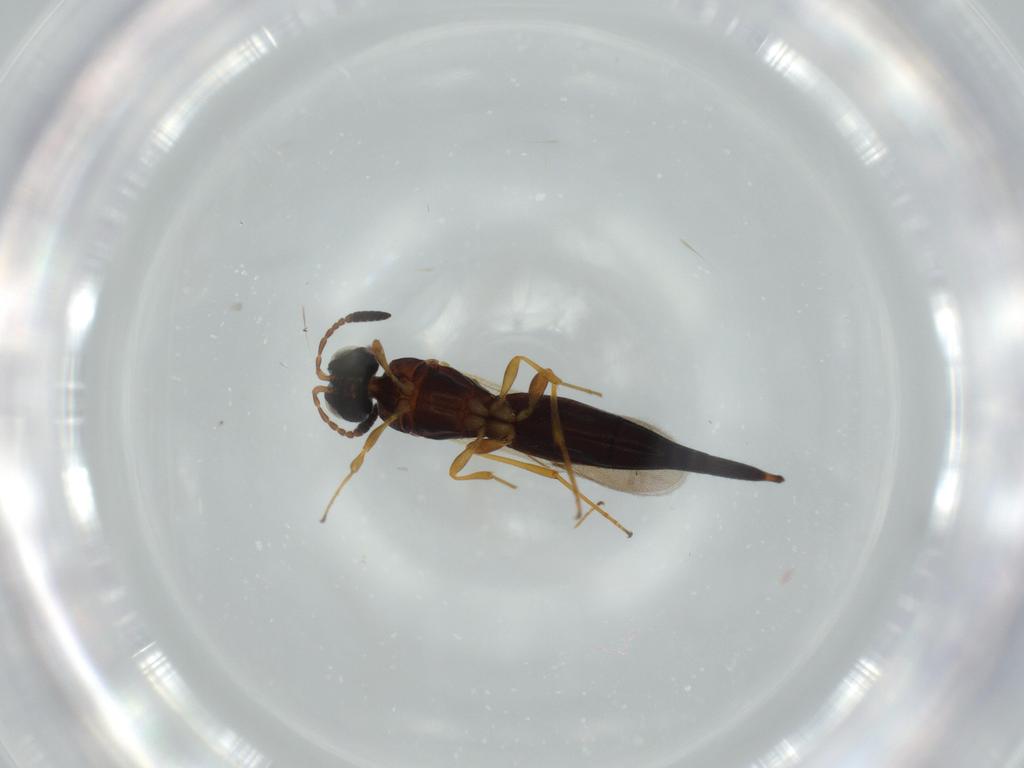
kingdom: Animalia
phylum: Arthropoda
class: Insecta
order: Hymenoptera
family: Scelionidae
